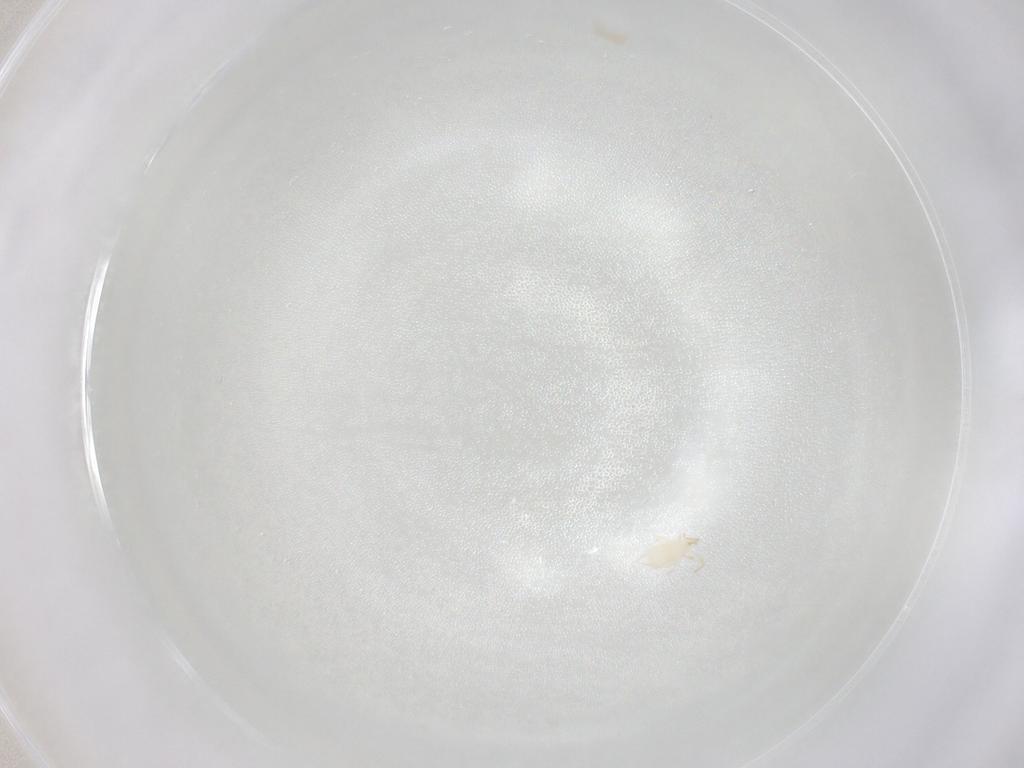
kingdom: Animalia
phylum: Arthropoda
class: Arachnida
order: Trombidiformes
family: Eupodidae
